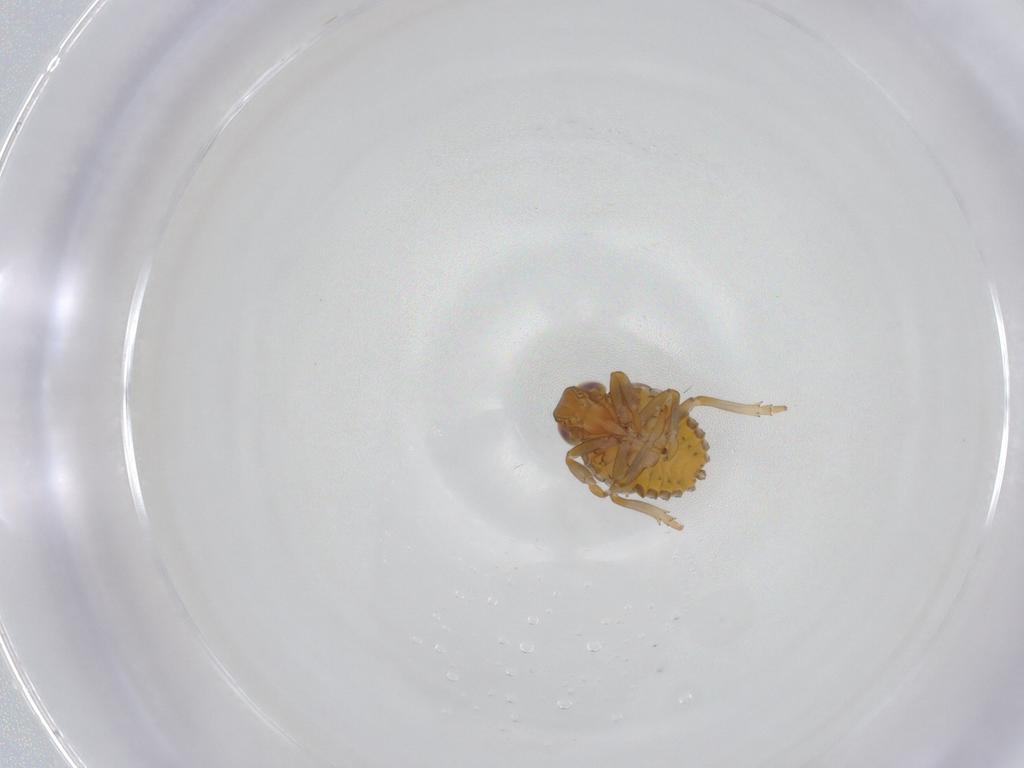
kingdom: Animalia
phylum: Arthropoda
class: Insecta
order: Hemiptera
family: Issidae
